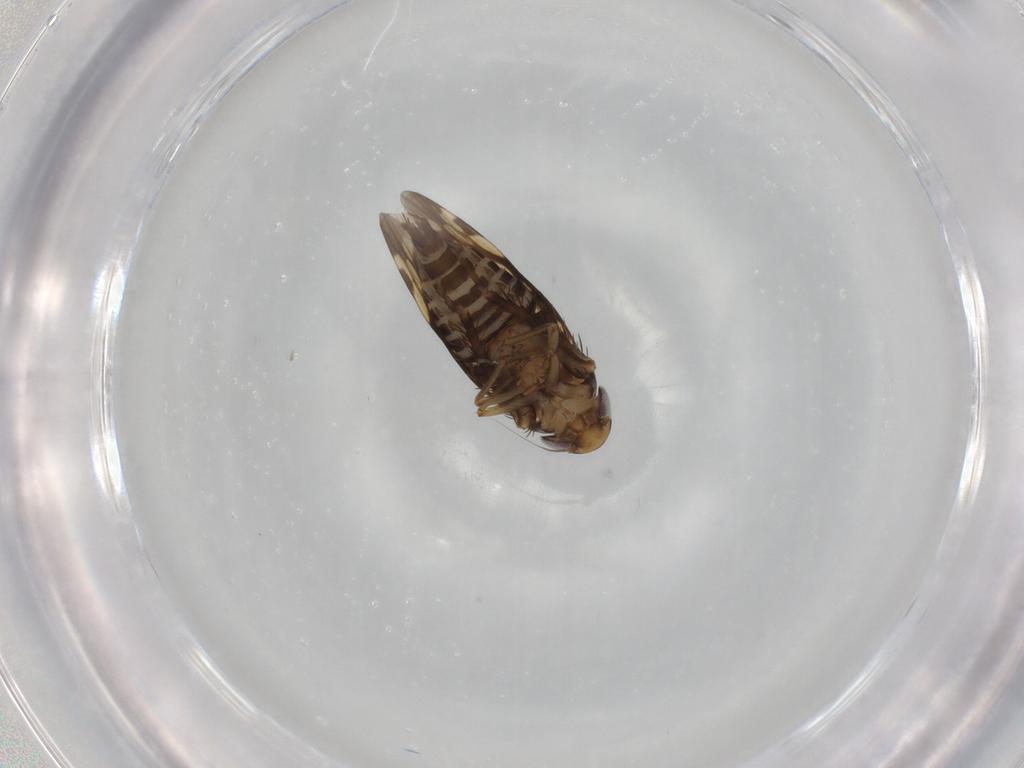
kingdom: Animalia
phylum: Arthropoda
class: Insecta
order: Hemiptera
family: Cicadellidae
